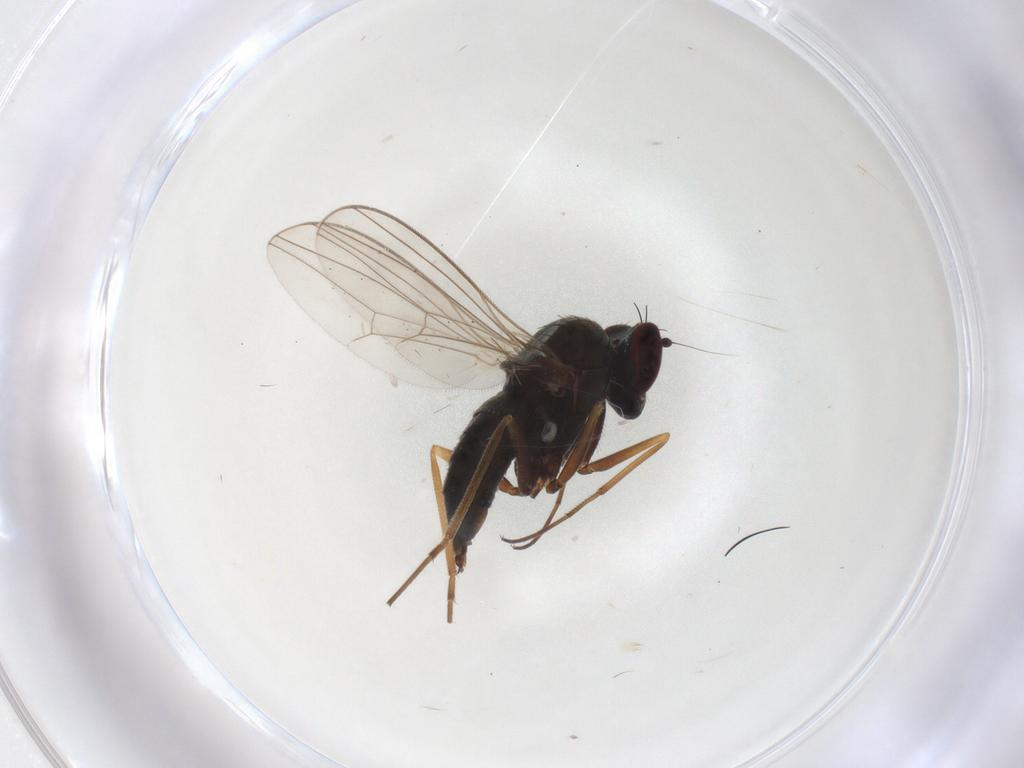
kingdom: Animalia
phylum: Arthropoda
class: Insecta
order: Diptera
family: Dolichopodidae
